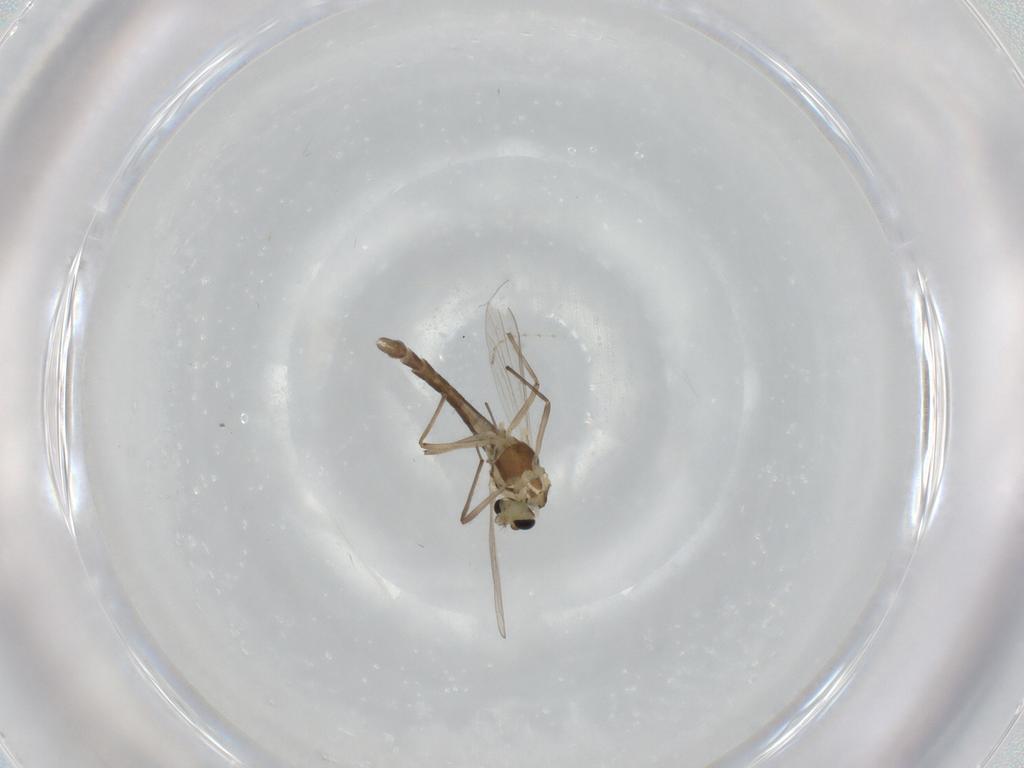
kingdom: Animalia
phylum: Arthropoda
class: Insecta
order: Diptera
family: Chironomidae
